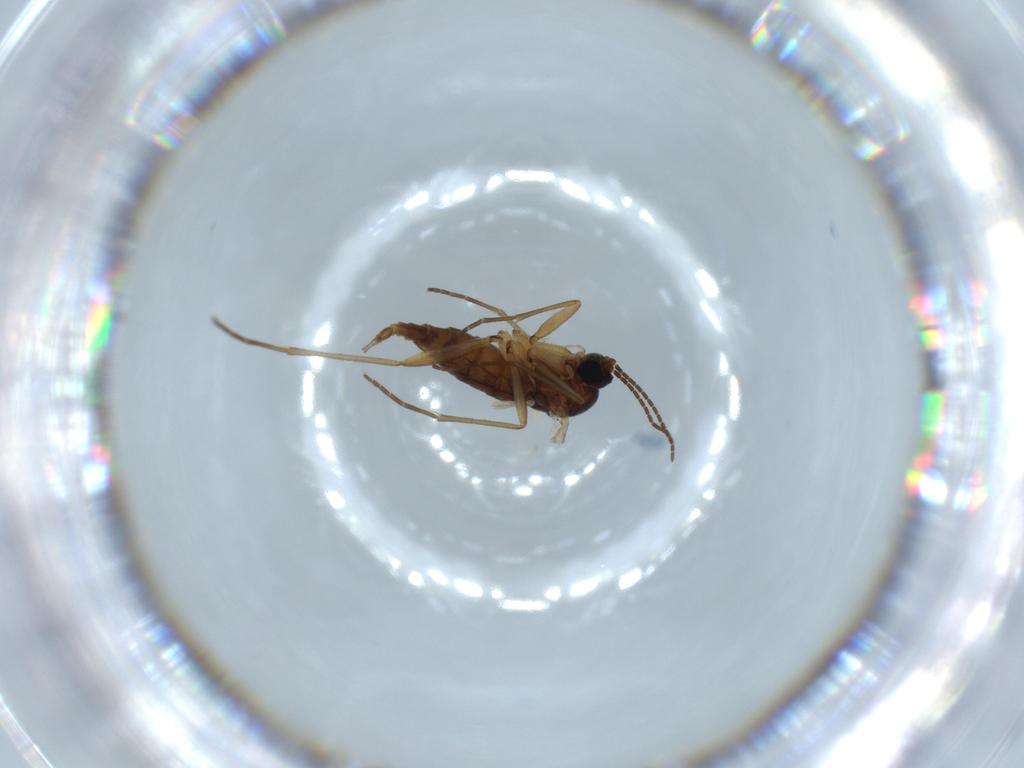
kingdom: Animalia
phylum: Arthropoda
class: Insecta
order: Diptera
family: Sciaridae
